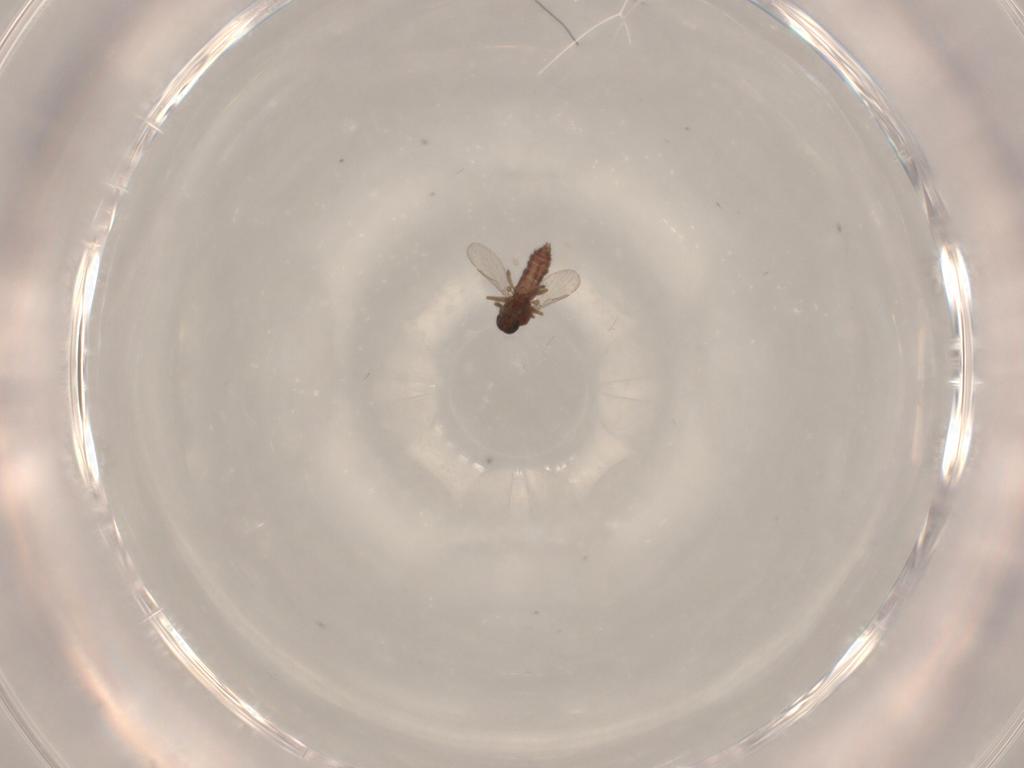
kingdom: Animalia
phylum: Arthropoda
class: Insecta
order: Diptera
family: Ceratopogonidae
